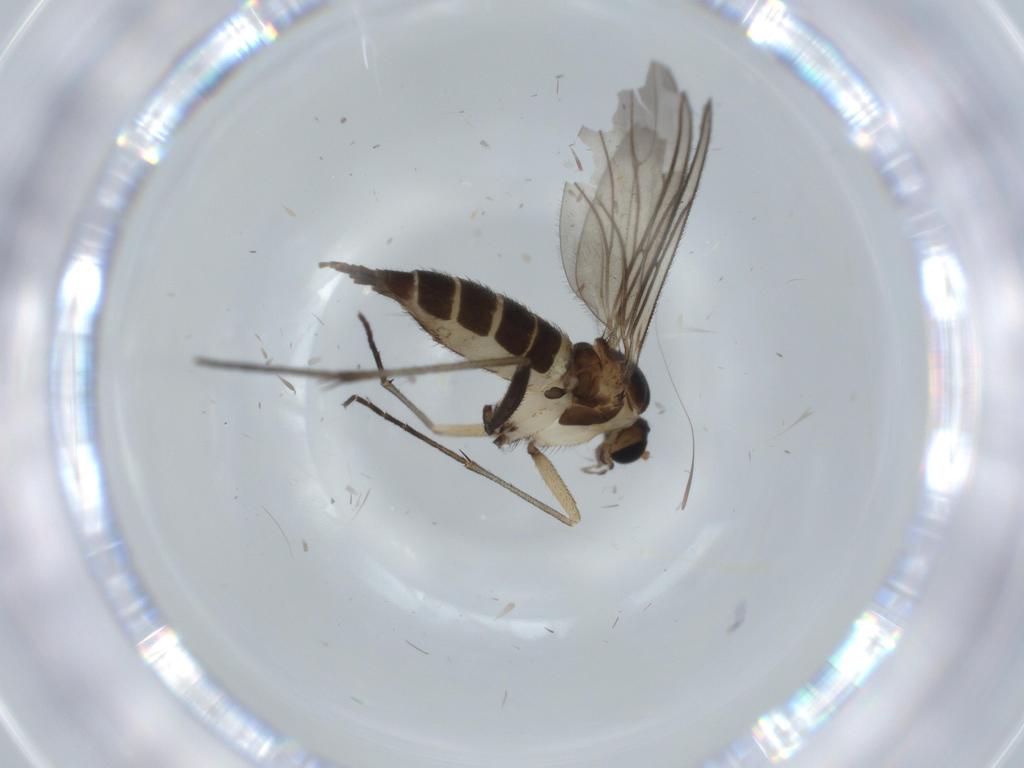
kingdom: Animalia
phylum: Arthropoda
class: Insecta
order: Diptera
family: Sciaridae
